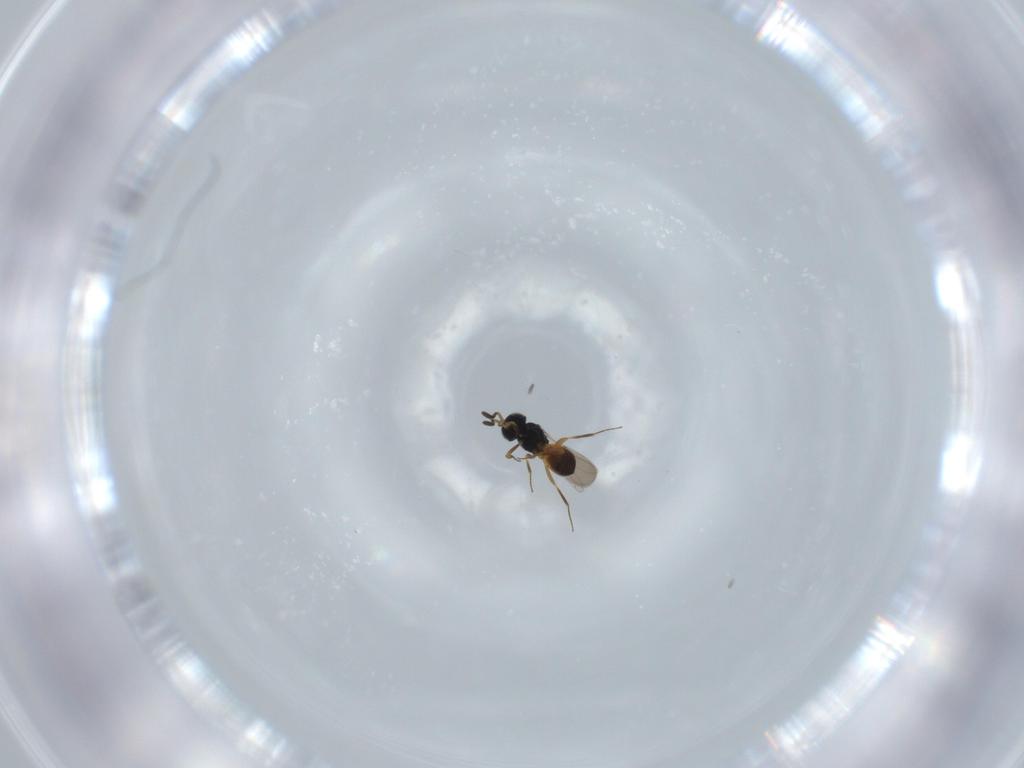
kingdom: Animalia
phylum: Arthropoda
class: Insecta
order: Hymenoptera
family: Scelionidae
